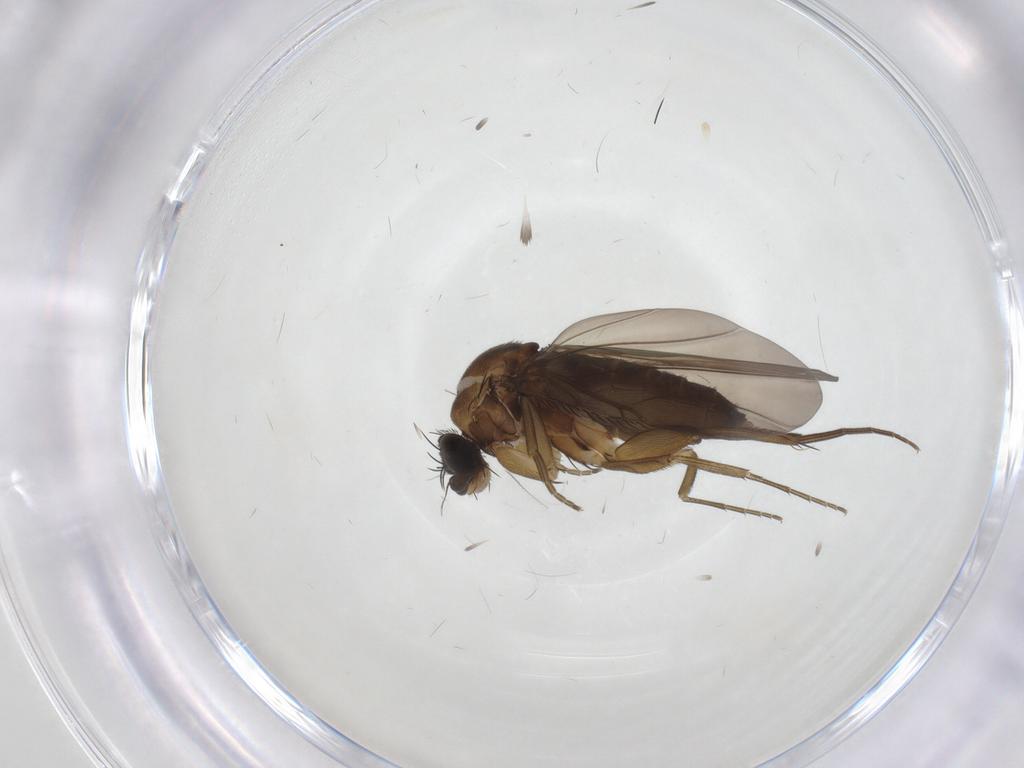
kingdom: Animalia
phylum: Arthropoda
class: Insecta
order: Diptera
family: Phoridae
